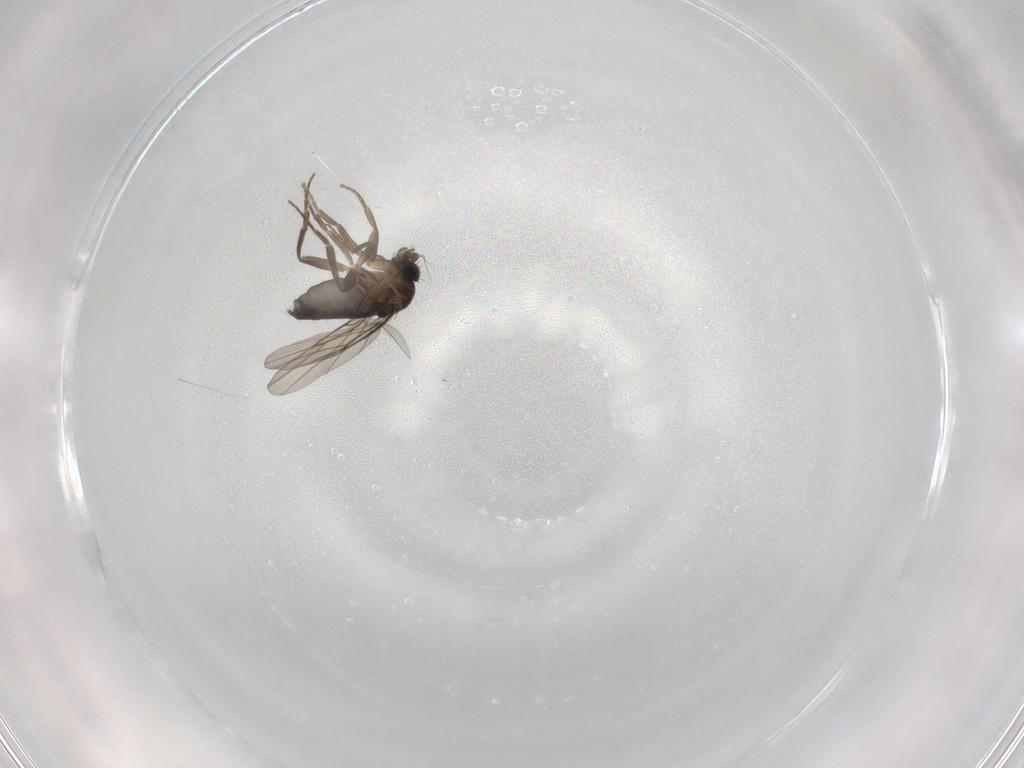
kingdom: Animalia
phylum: Arthropoda
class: Insecta
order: Diptera
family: Phoridae
